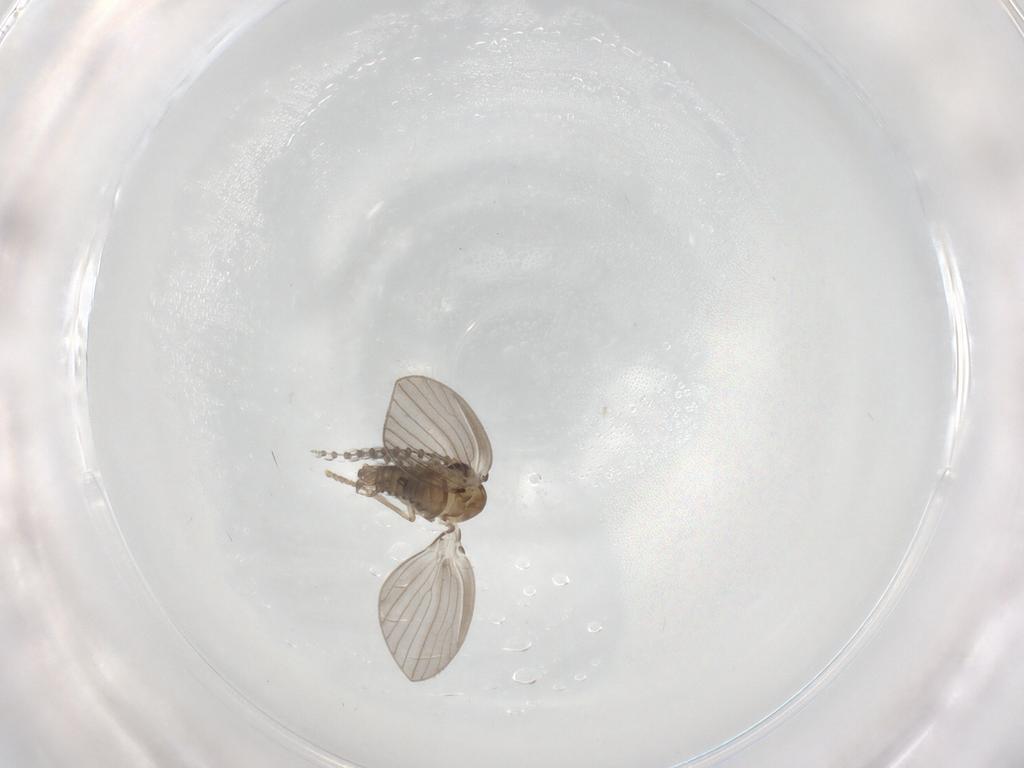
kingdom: Animalia
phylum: Arthropoda
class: Insecta
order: Diptera
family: Psychodidae
